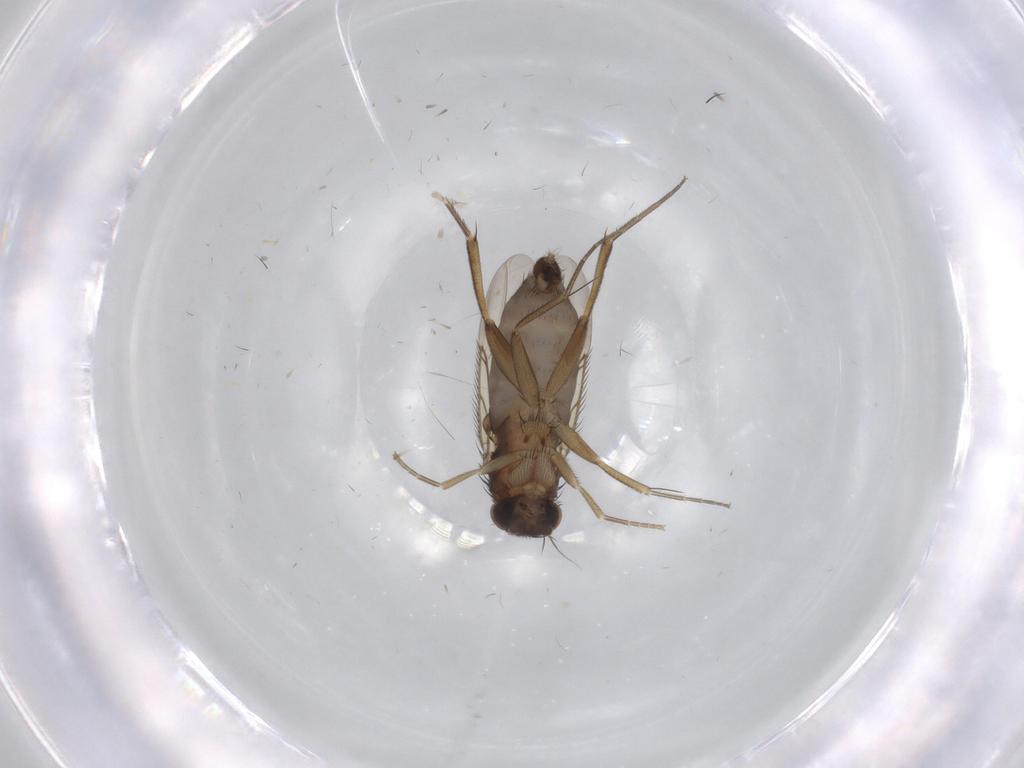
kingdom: Animalia
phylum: Arthropoda
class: Insecta
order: Diptera
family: Phoridae
